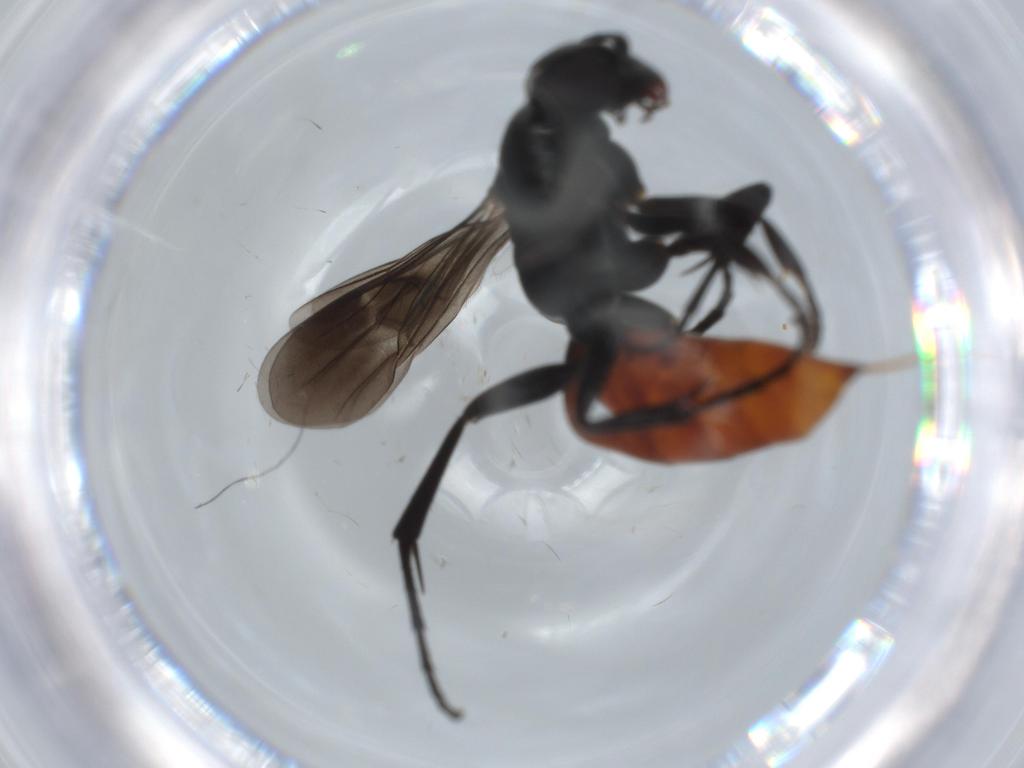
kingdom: Animalia
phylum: Arthropoda
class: Insecta
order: Hymenoptera
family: Pompilidae
